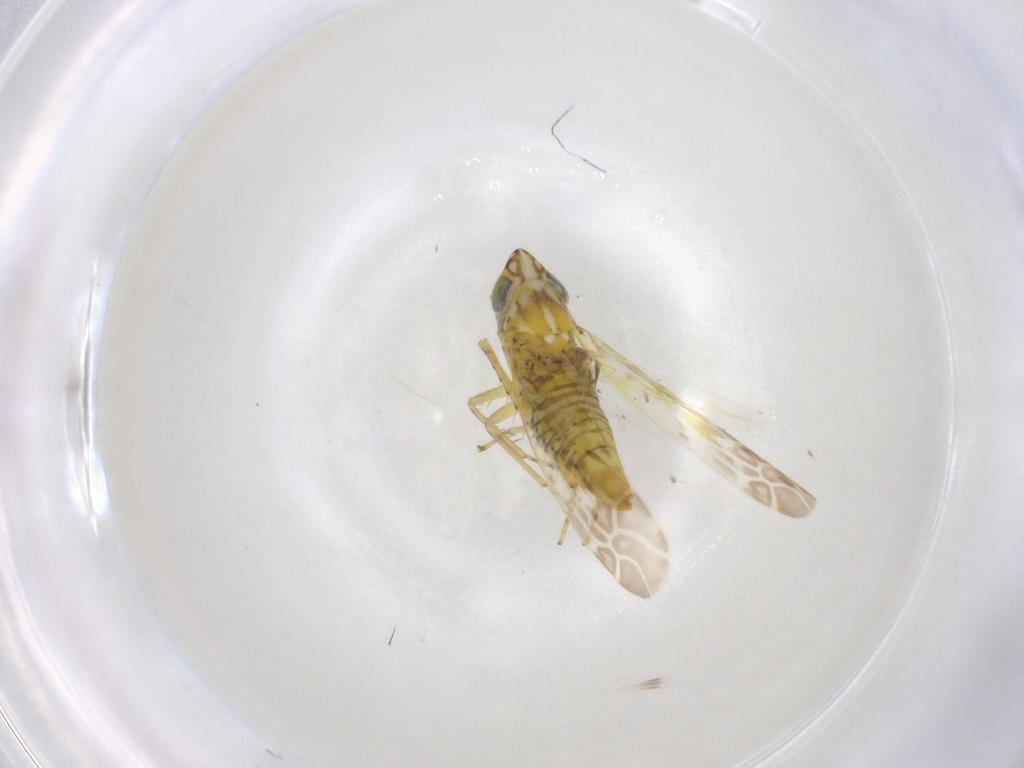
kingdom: Animalia
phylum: Arthropoda
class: Insecta
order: Hemiptera
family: Cicadellidae
